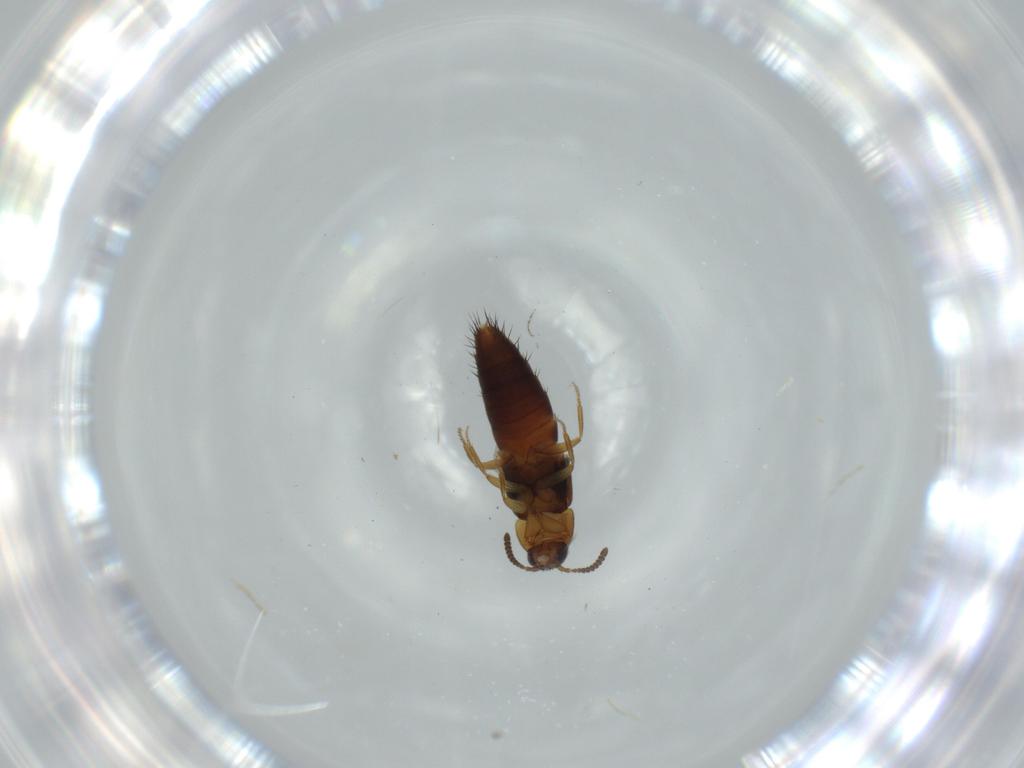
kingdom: Animalia
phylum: Arthropoda
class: Insecta
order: Coleoptera
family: Staphylinidae
